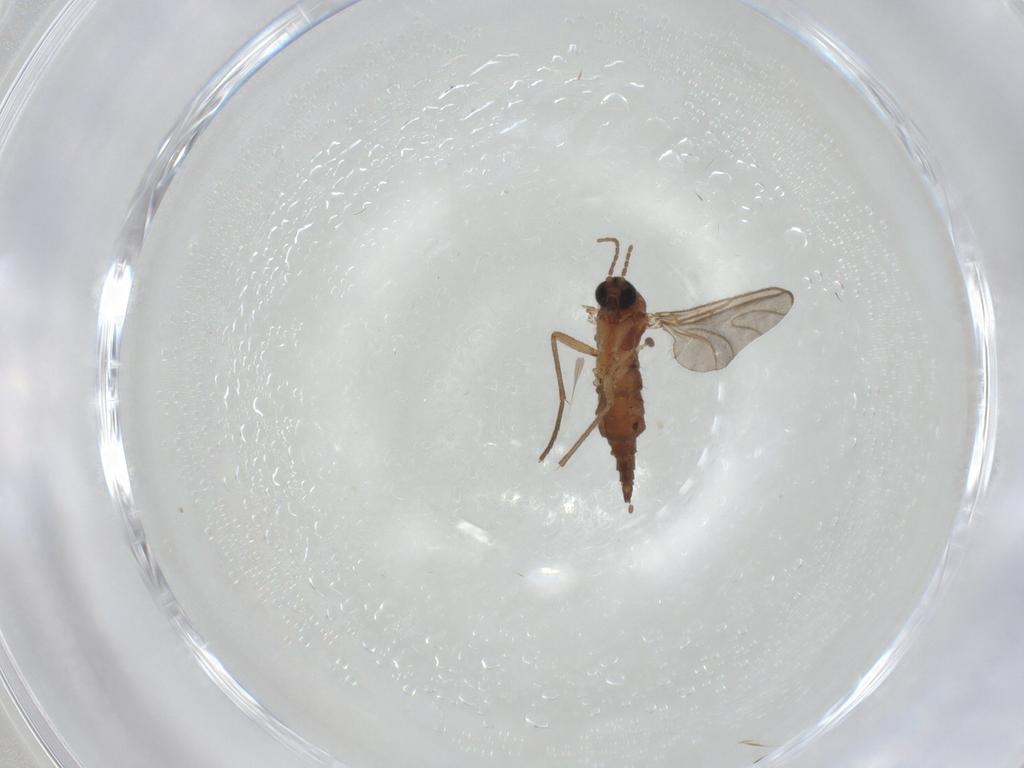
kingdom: Animalia
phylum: Arthropoda
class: Insecta
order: Diptera
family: Sciaridae
